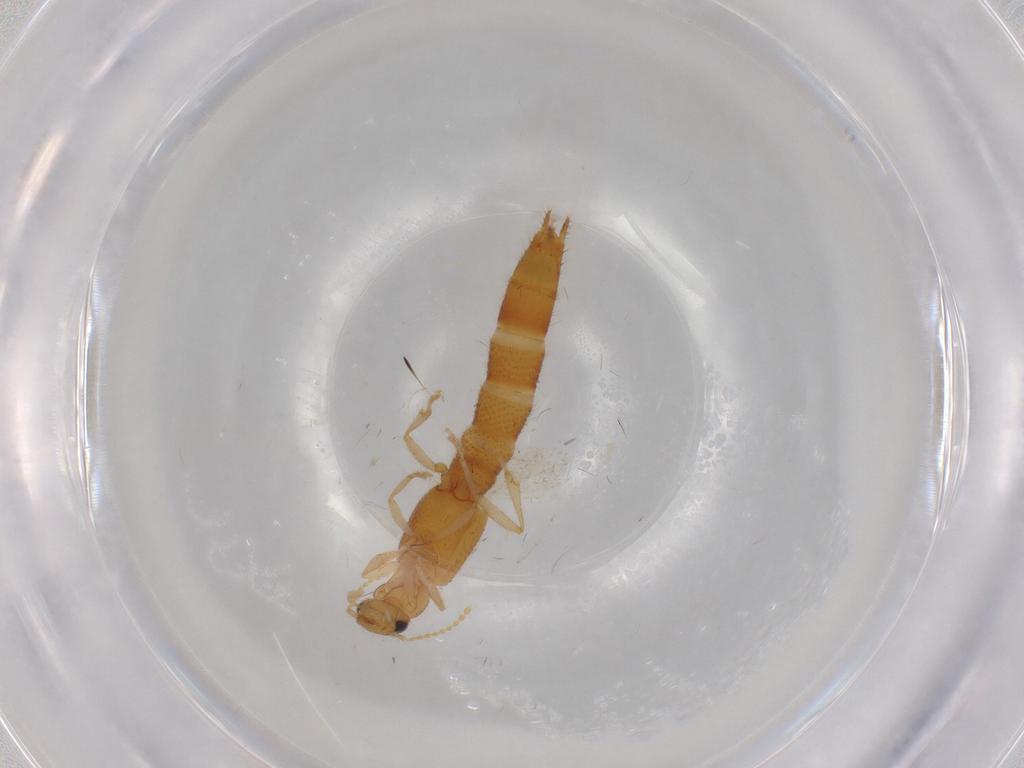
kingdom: Animalia
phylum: Arthropoda
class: Insecta
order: Coleoptera
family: Staphylinidae
